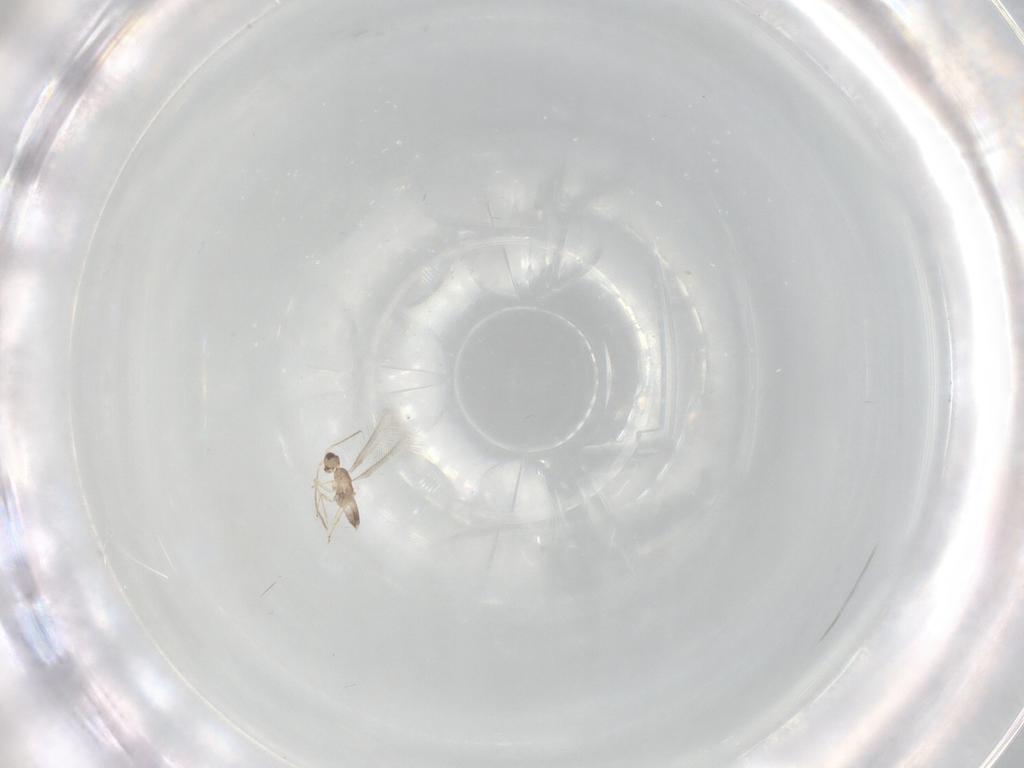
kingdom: Animalia
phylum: Arthropoda
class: Insecta
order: Hymenoptera
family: Mymaridae
